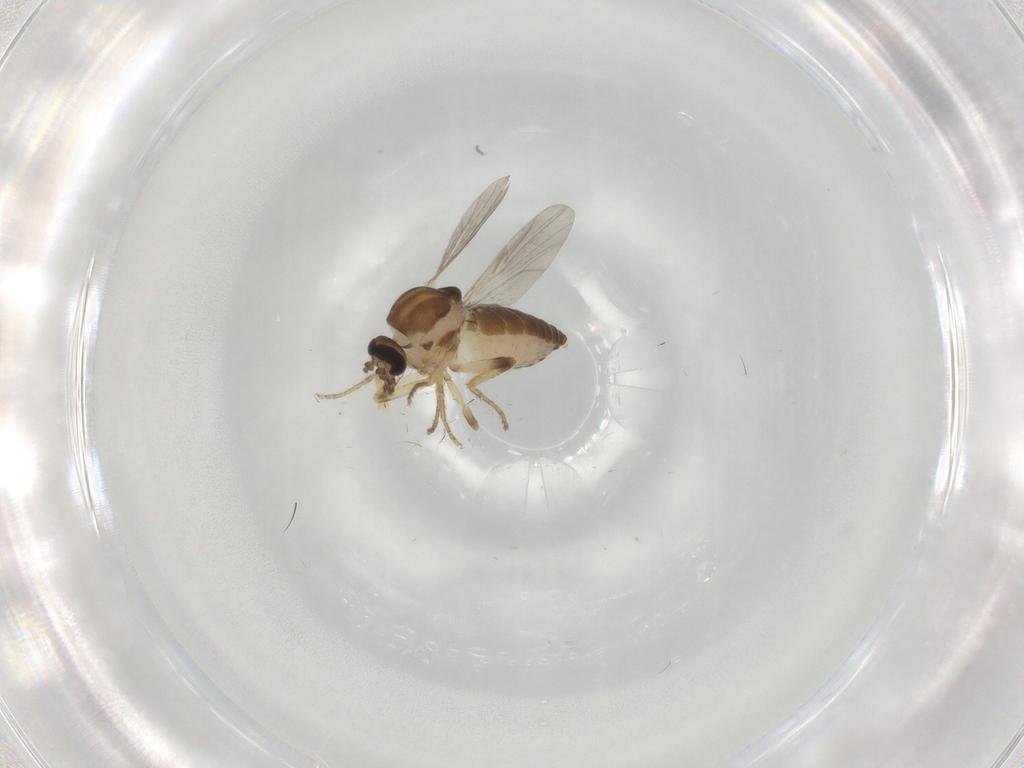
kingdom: Animalia
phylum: Arthropoda
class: Insecta
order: Diptera
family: Ceratopogonidae
